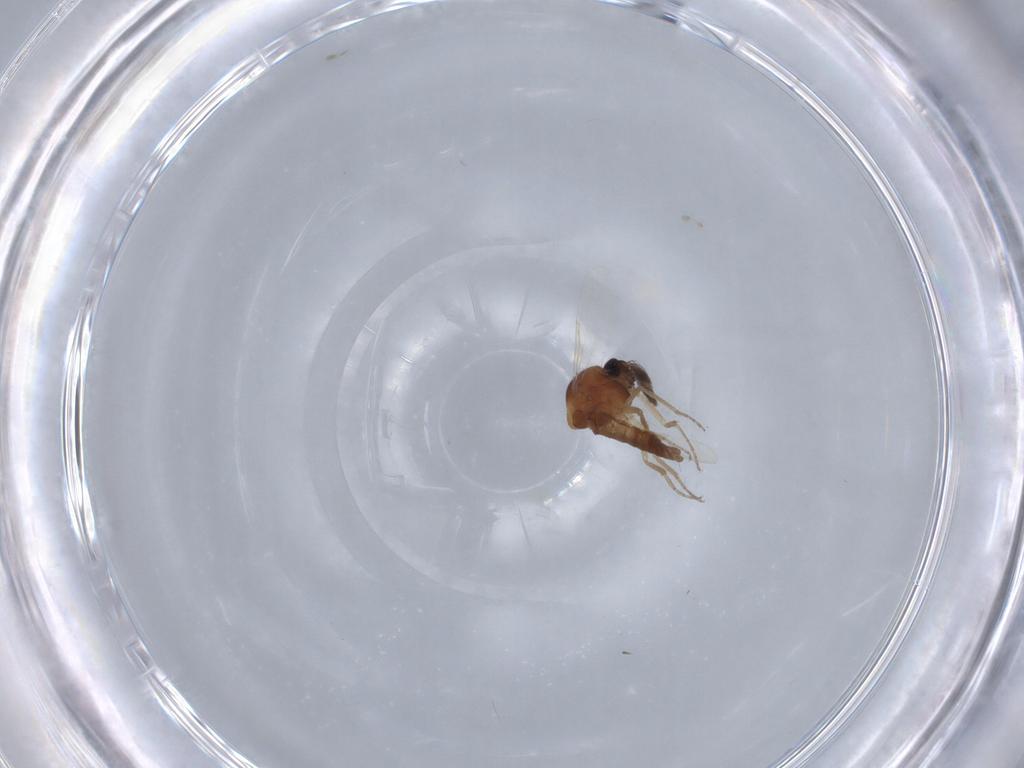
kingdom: Animalia
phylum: Arthropoda
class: Insecta
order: Diptera
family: Ceratopogonidae
